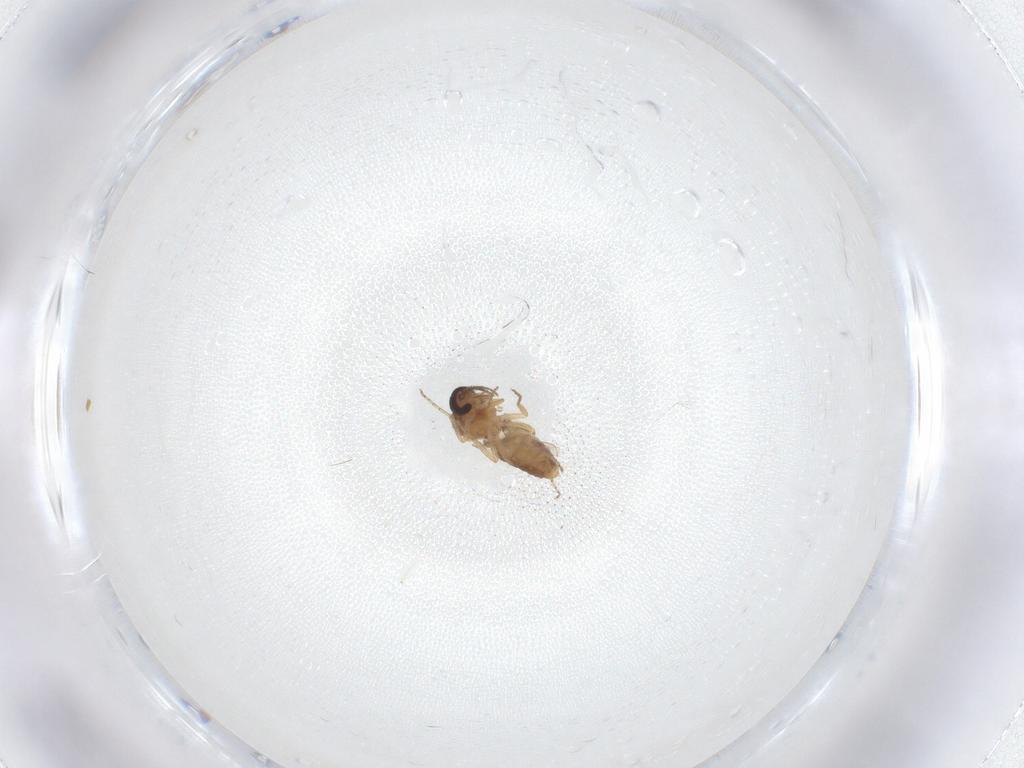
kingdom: Animalia
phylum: Arthropoda
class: Insecta
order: Diptera
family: Ceratopogonidae
